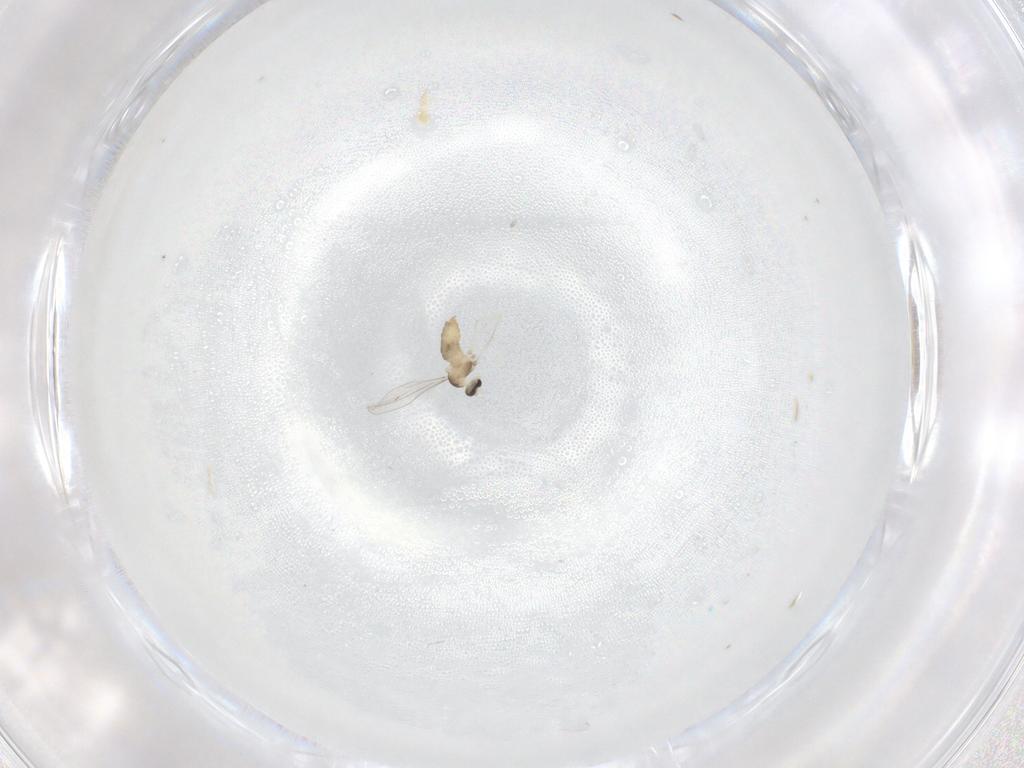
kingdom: Animalia
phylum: Arthropoda
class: Insecta
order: Diptera
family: Cecidomyiidae
